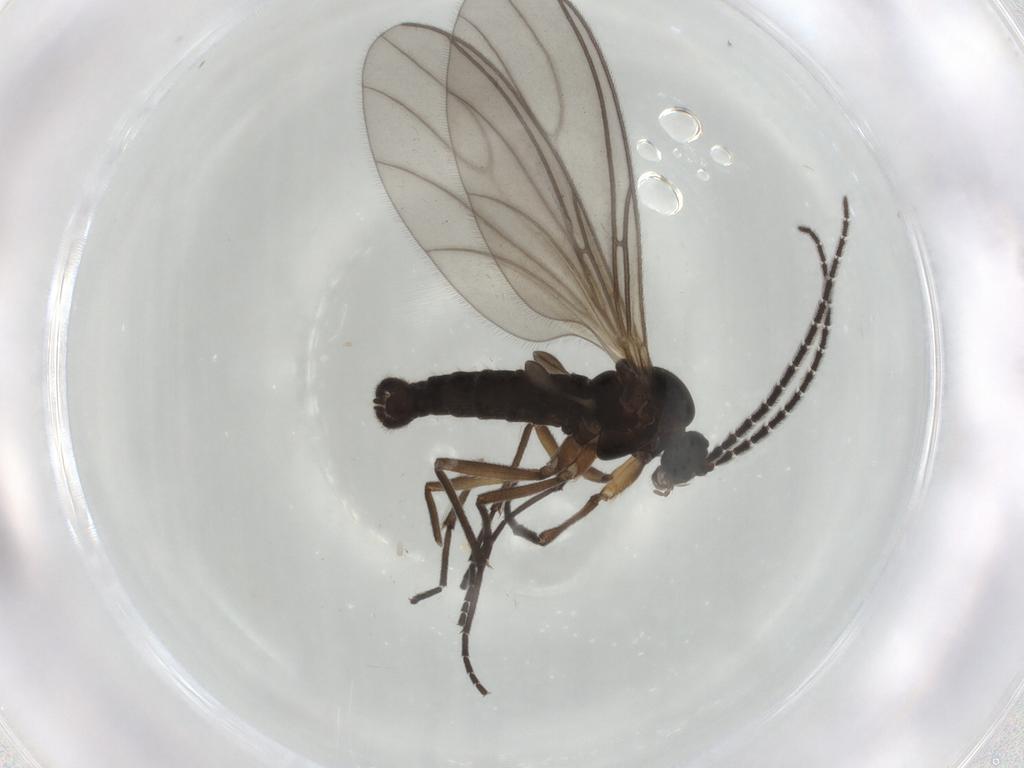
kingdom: Animalia
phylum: Arthropoda
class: Insecta
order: Diptera
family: Sciaridae
